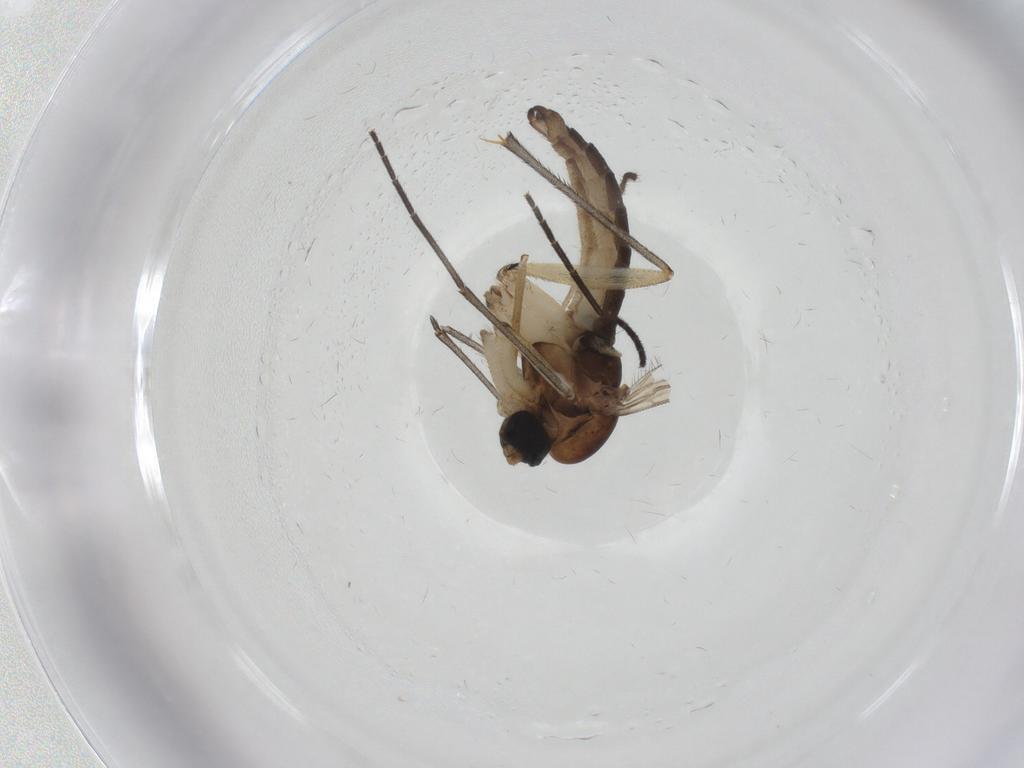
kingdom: Animalia
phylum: Arthropoda
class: Insecta
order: Diptera
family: Sciaridae
